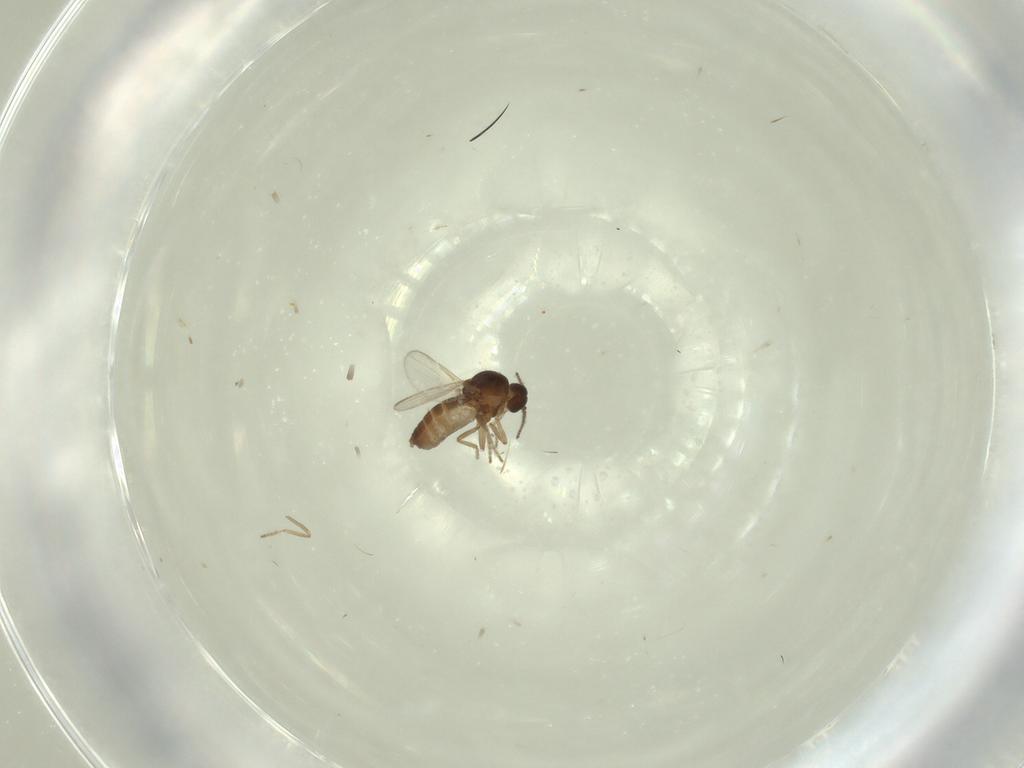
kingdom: Animalia
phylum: Arthropoda
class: Insecta
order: Diptera
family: Ceratopogonidae
